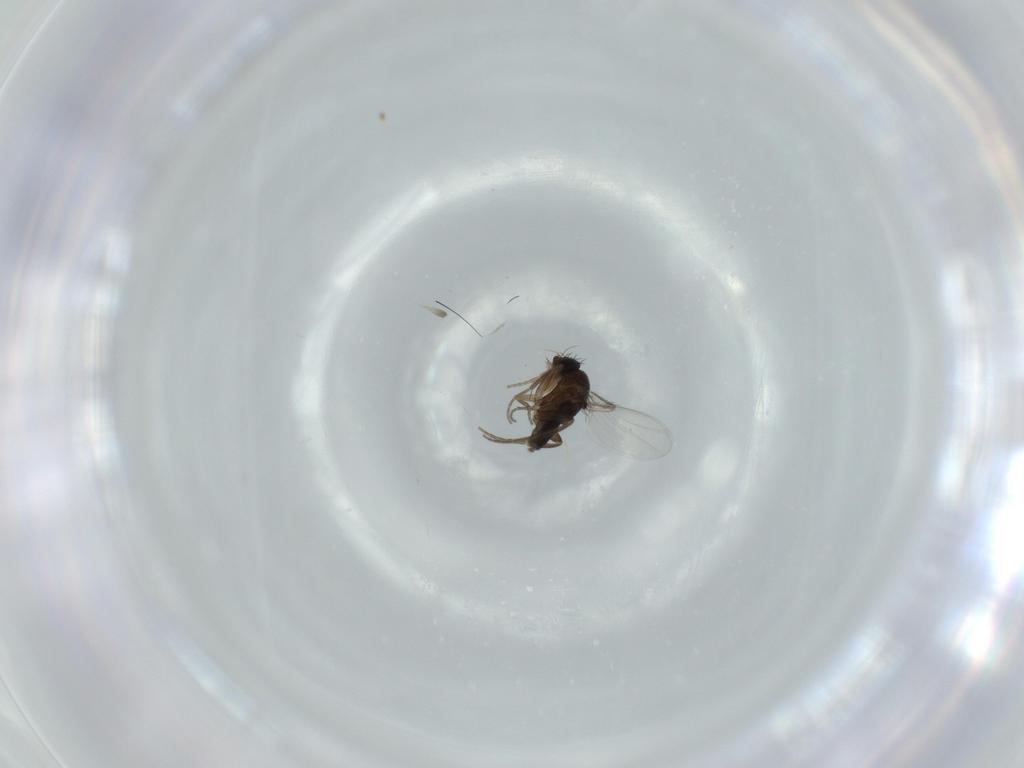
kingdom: Animalia
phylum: Arthropoda
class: Insecta
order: Diptera
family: Phoridae
